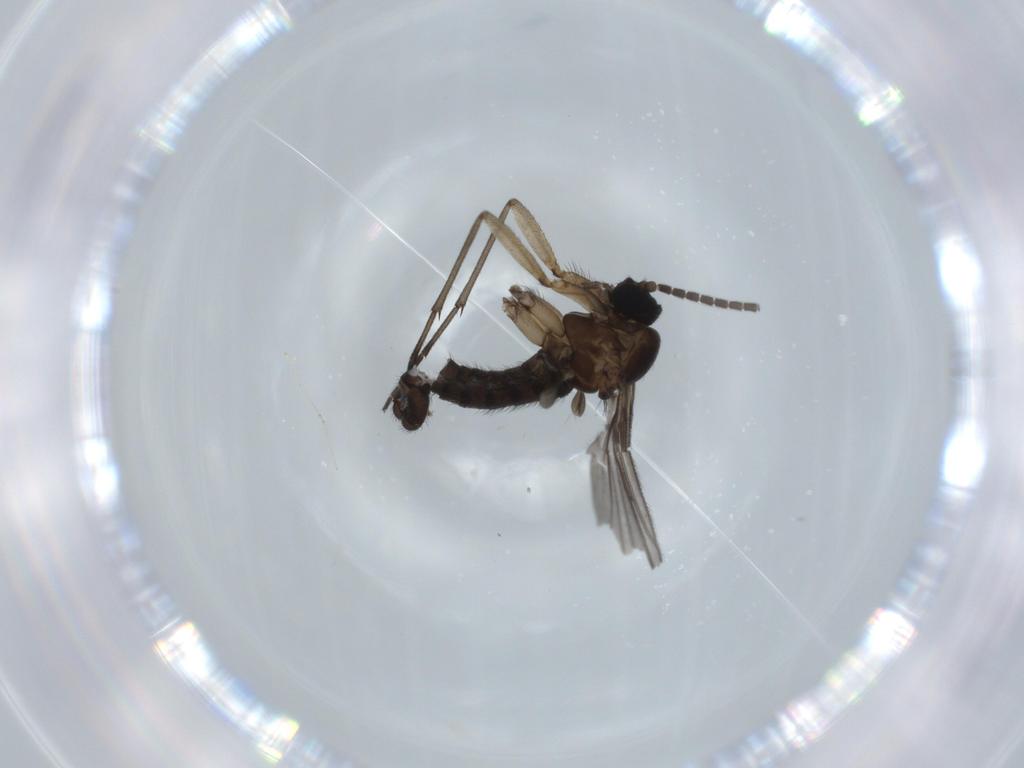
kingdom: Animalia
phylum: Arthropoda
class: Insecta
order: Diptera
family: Sciaridae
